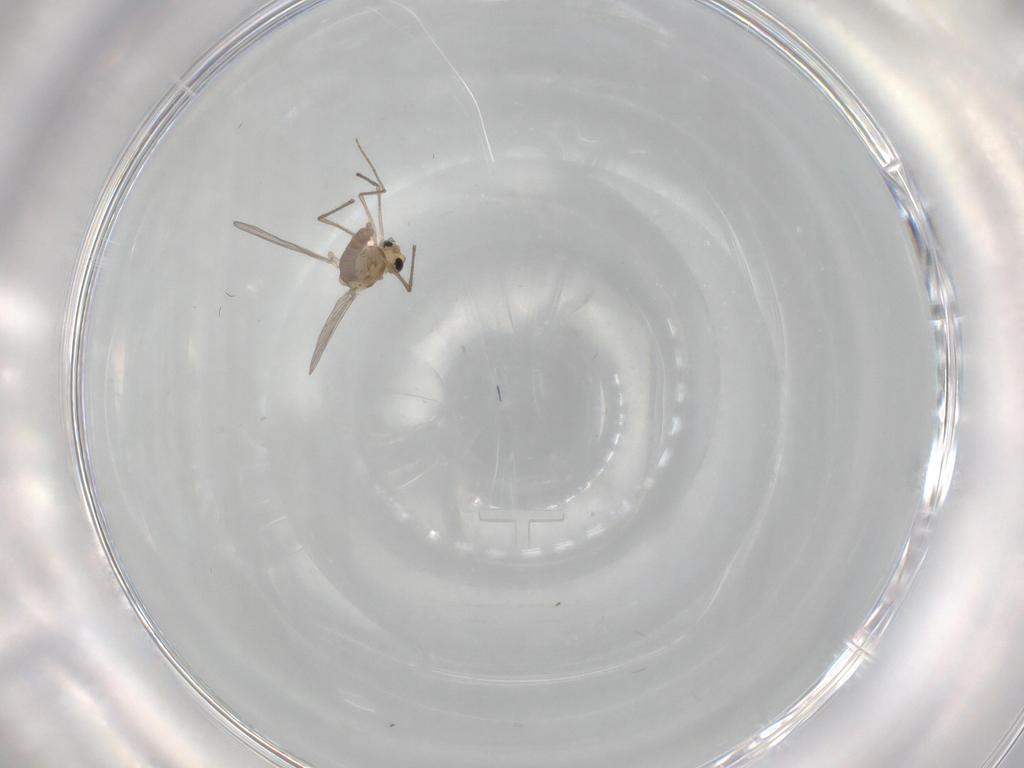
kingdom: Animalia
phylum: Arthropoda
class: Insecta
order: Diptera
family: Chironomidae
